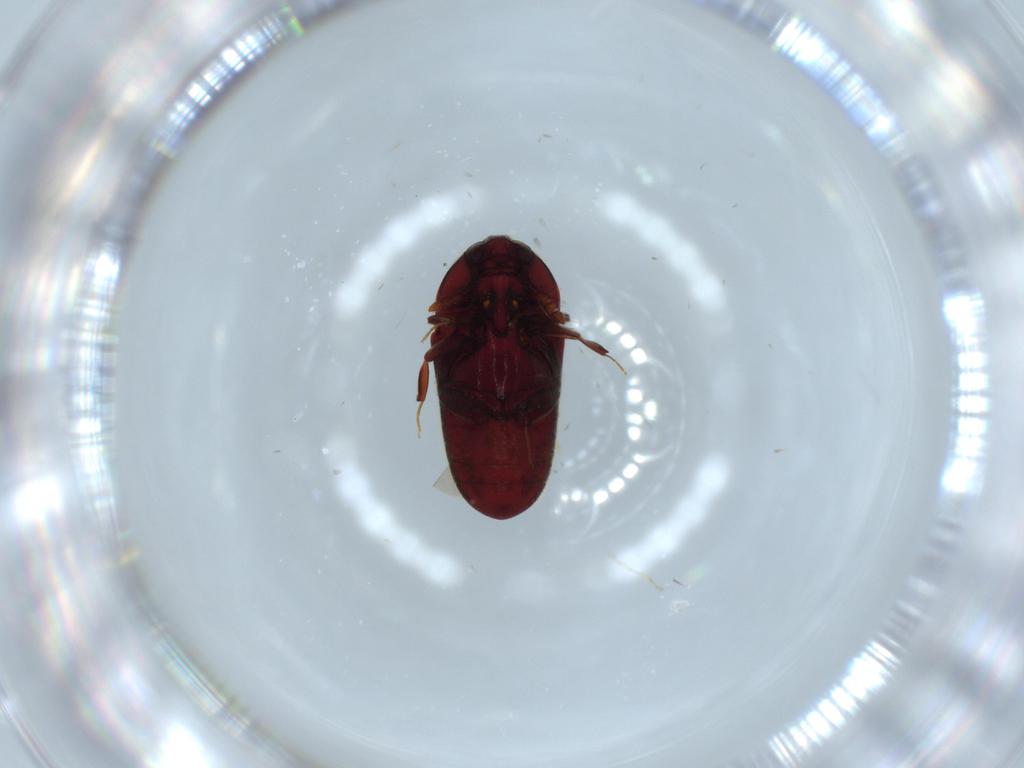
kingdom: Animalia
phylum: Arthropoda
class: Insecta
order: Coleoptera
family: Throscidae
